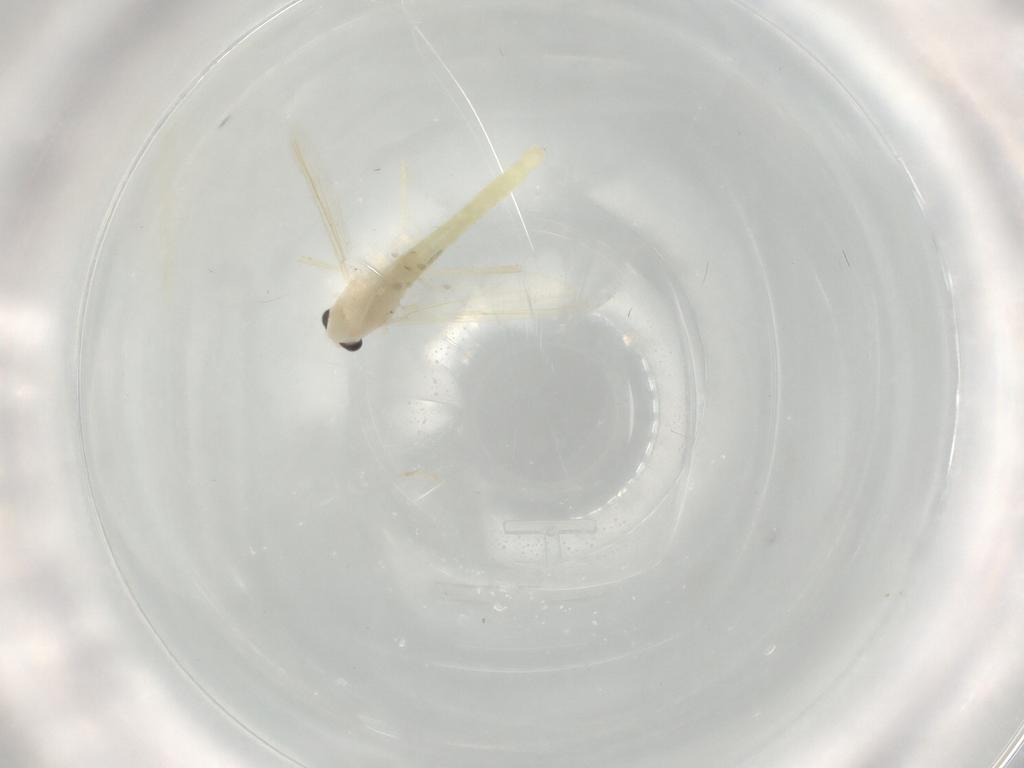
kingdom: Animalia
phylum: Arthropoda
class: Insecta
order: Diptera
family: Chironomidae
